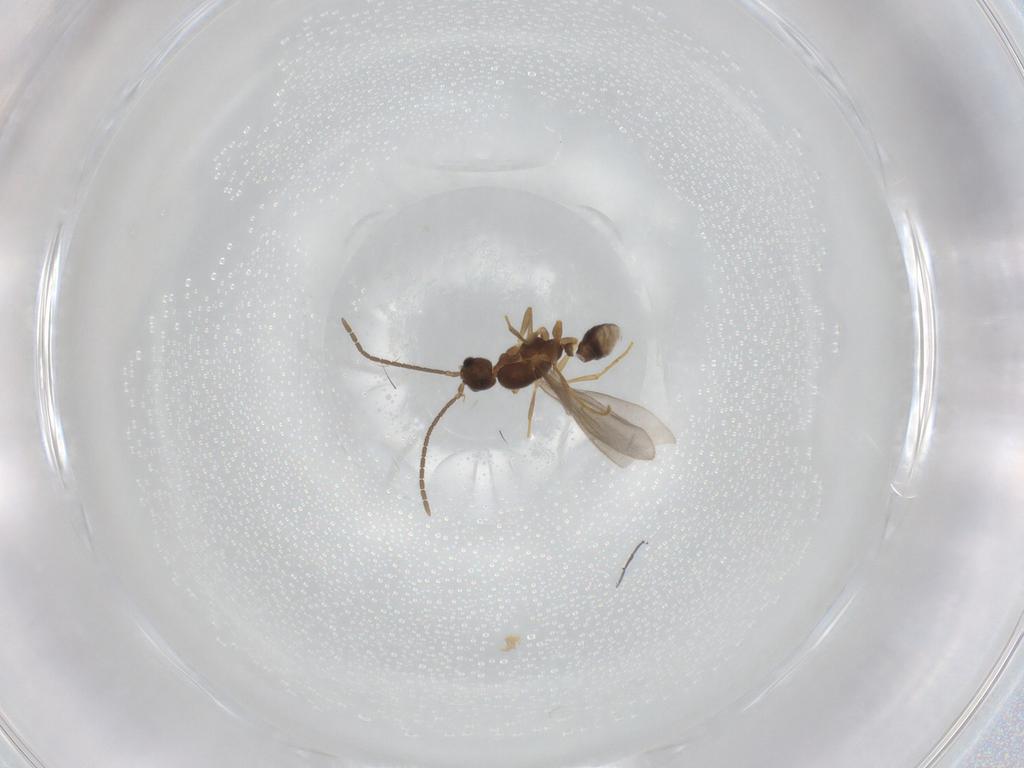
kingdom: Animalia
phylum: Arthropoda
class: Insecta
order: Hymenoptera
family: Formicidae
